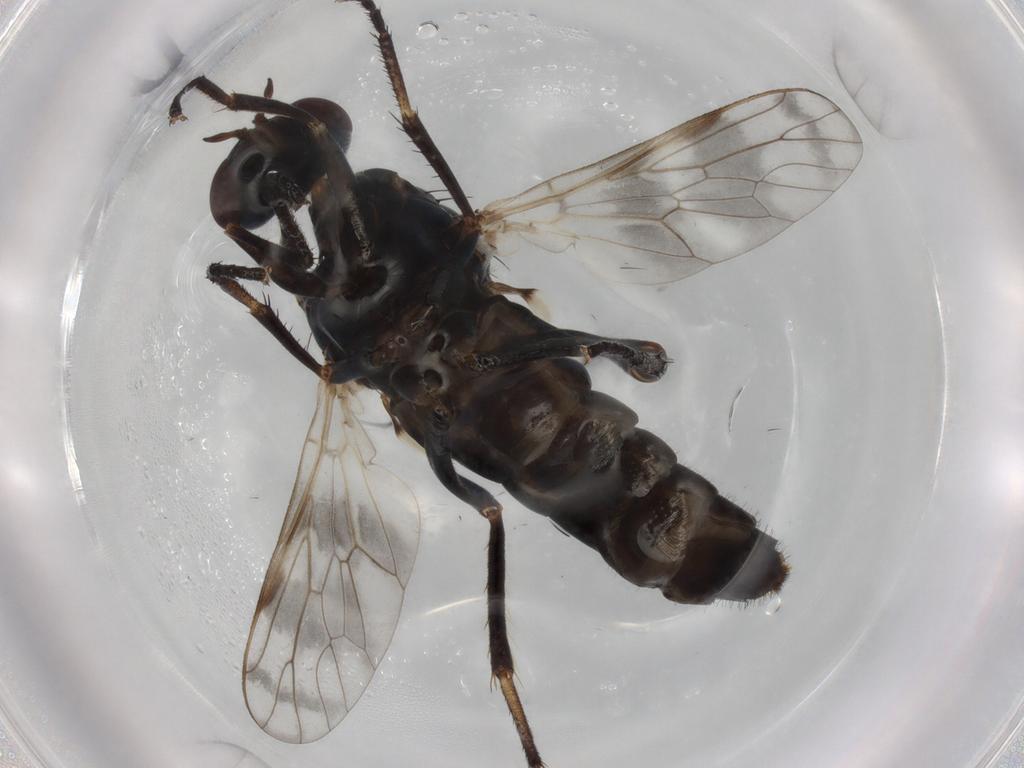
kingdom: Animalia
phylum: Arthropoda
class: Insecta
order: Diptera
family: Therevidae
